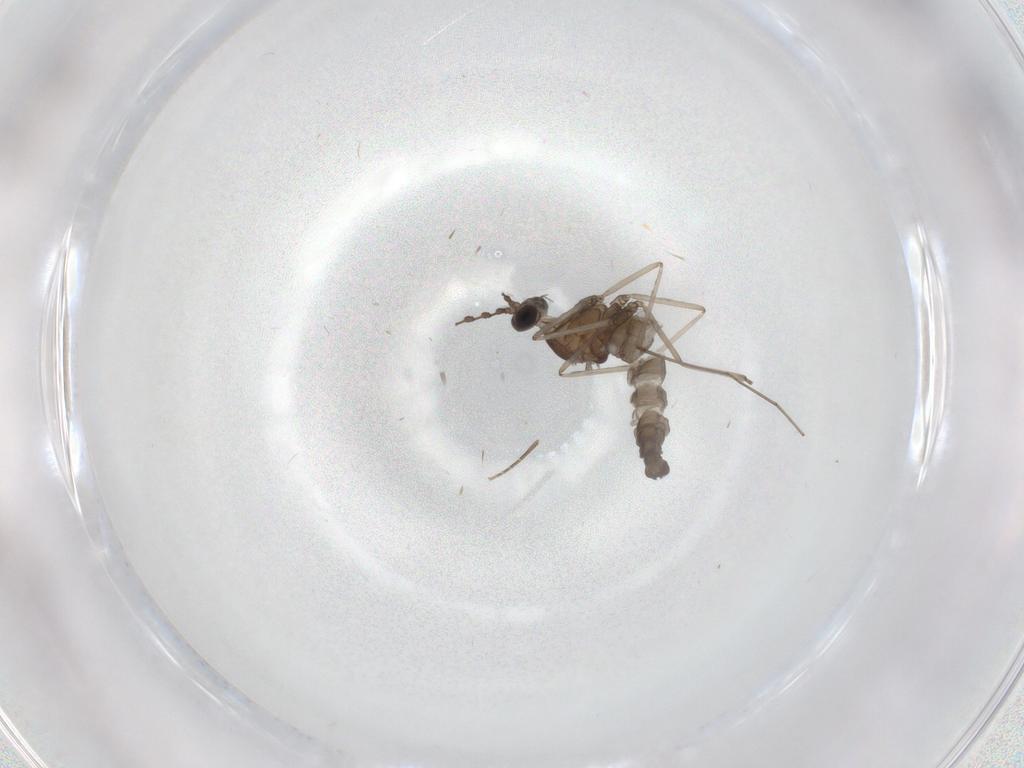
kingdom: Animalia
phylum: Arthropoda
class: Insecta
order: Diptera
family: Cecidomyiidae
